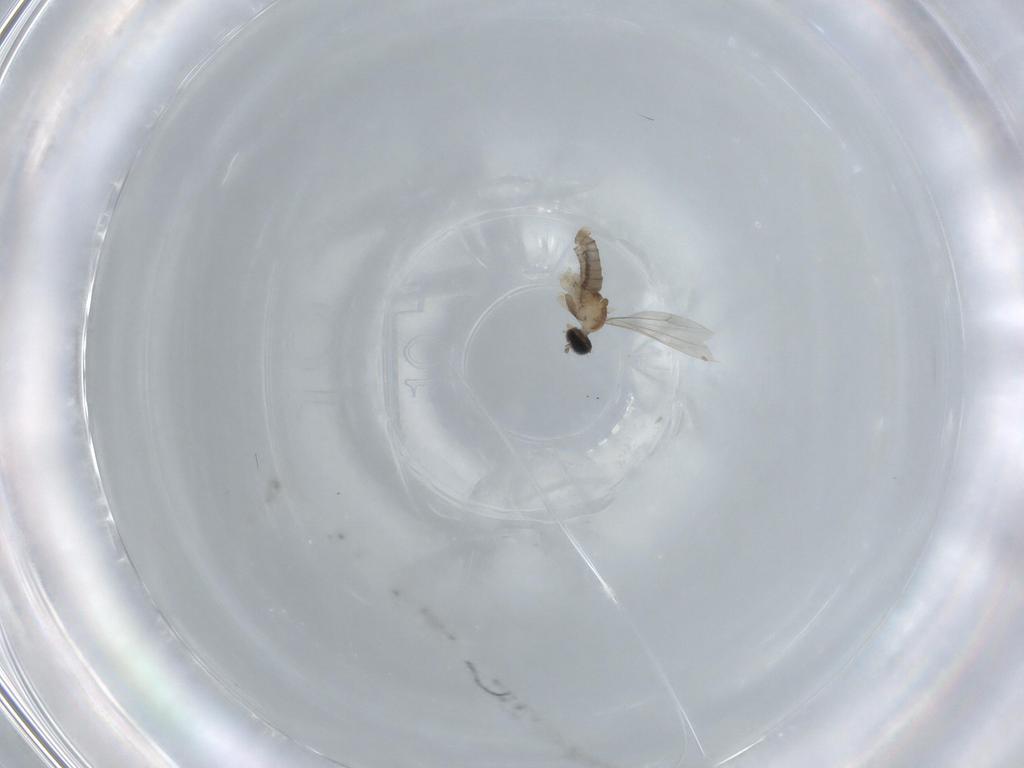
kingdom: Animalia
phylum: Arthropoda
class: Insecta
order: Diptera
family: Cecidomyiidae
